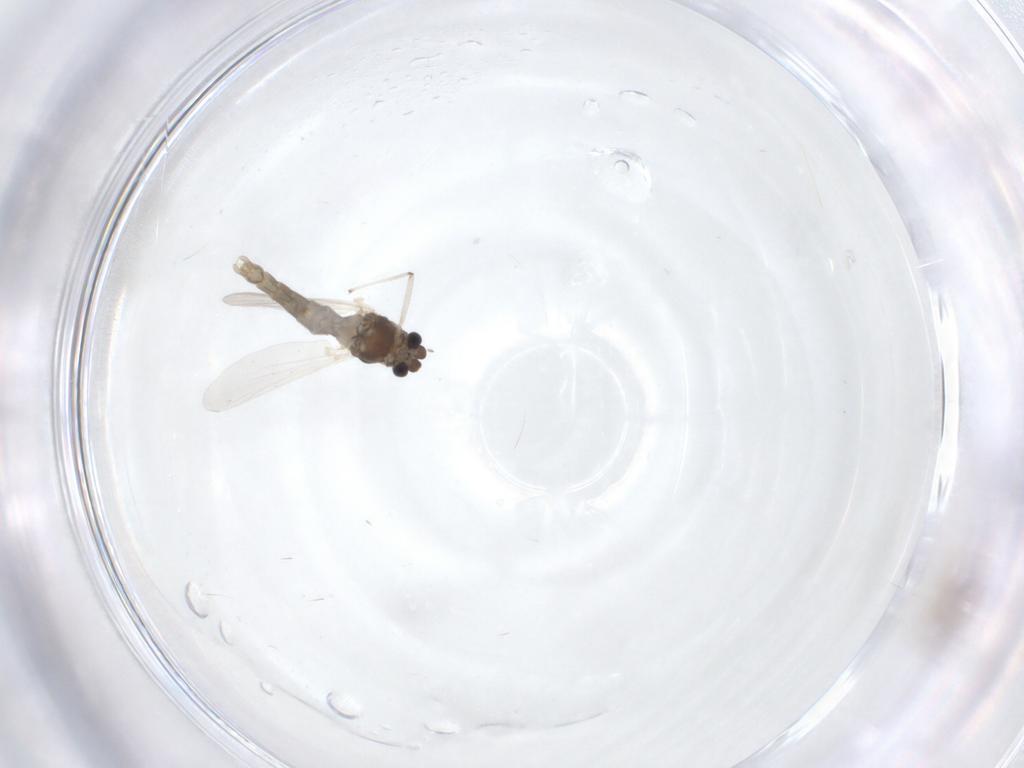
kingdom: Animalia
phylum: Arthropoda
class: Insecta
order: Diptera
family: Chironomidae
